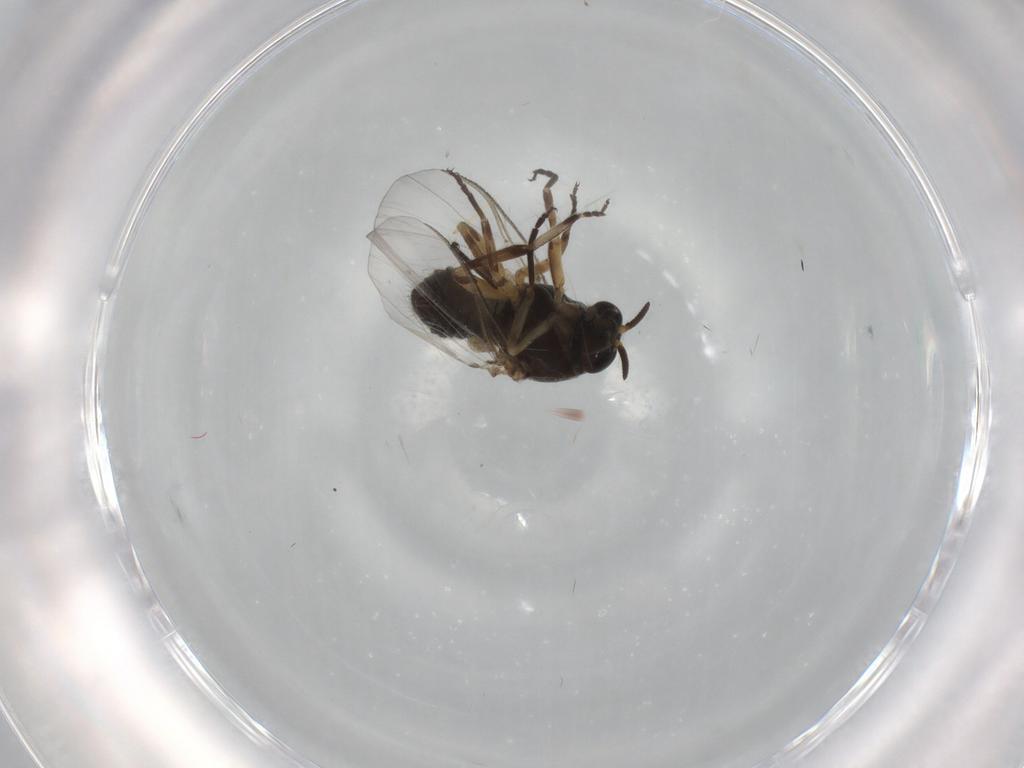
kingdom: Animalia
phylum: Arthropoda
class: Insecta
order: Diptera
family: Phoridae
